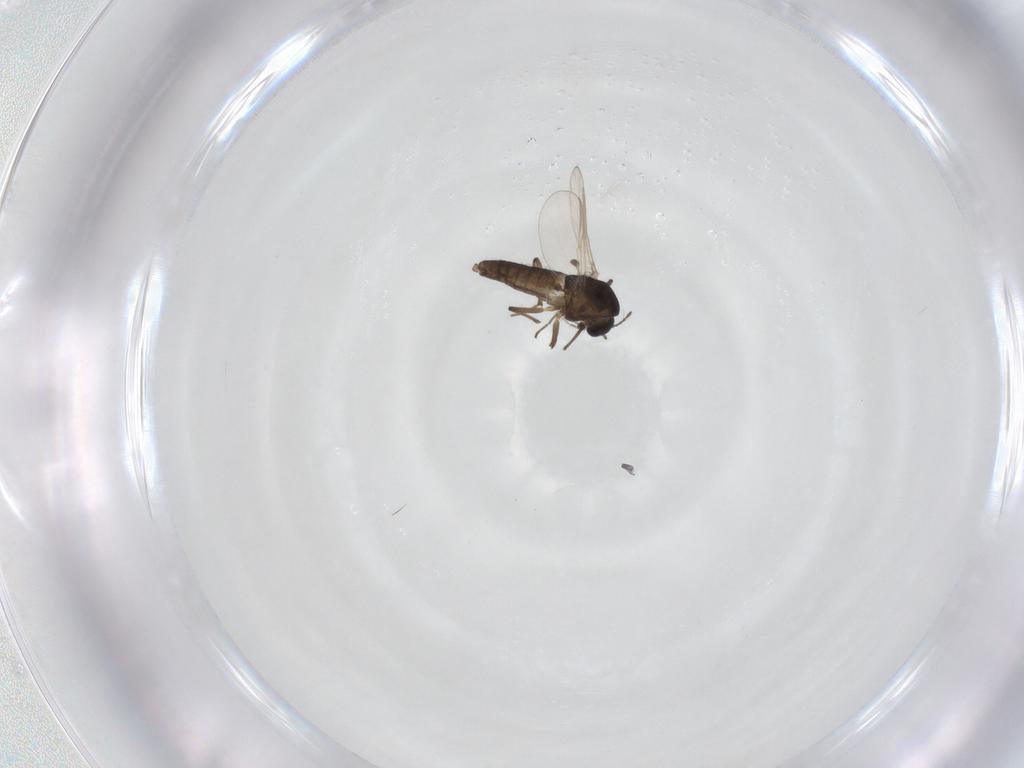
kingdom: Animalia
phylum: Arthropoda
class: Insecta
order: Diptera
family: Chironomidae
